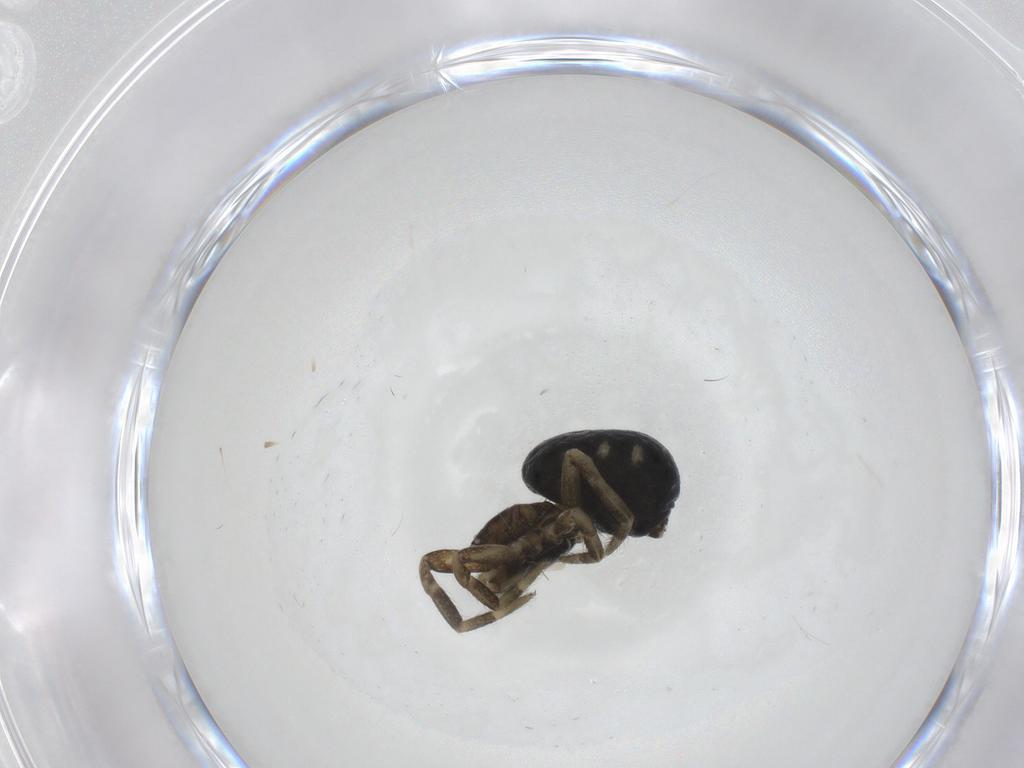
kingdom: Animalia
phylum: Arthropoda
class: Arachnida
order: Araneae
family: Theridiidae
